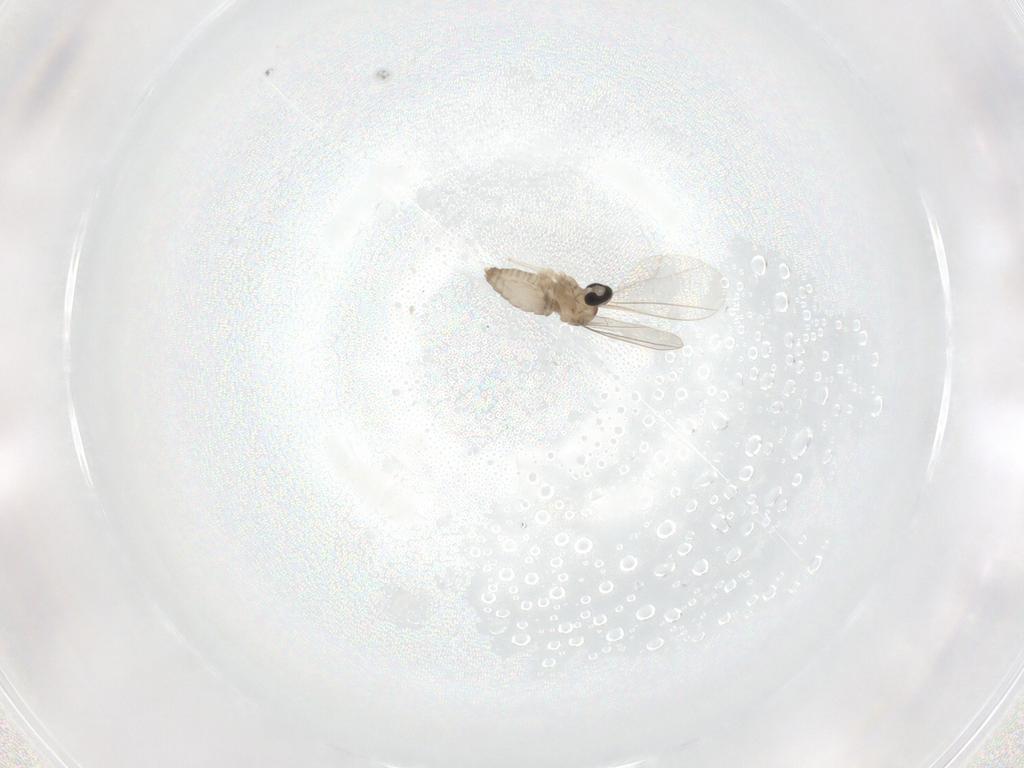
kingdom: Animalia
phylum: Arthropoda
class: Insecta
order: Diptera
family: Cecidomyiidae
